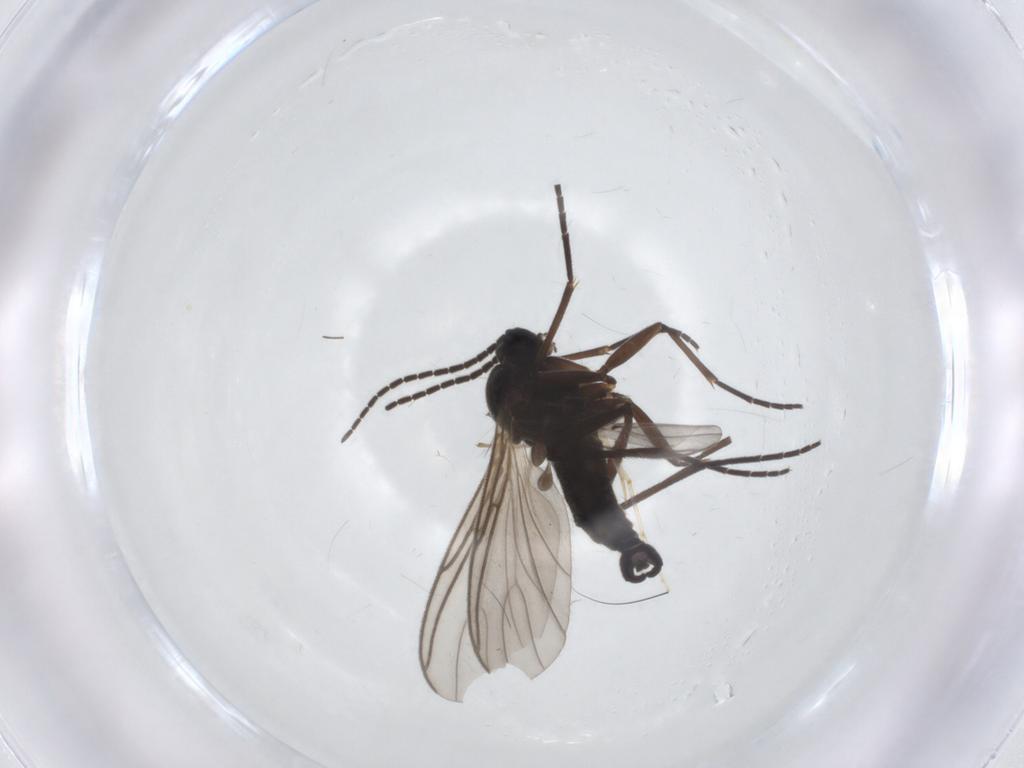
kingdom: Animalia
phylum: Arthropoda
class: Insecta
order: Diptera
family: Sciaridae
